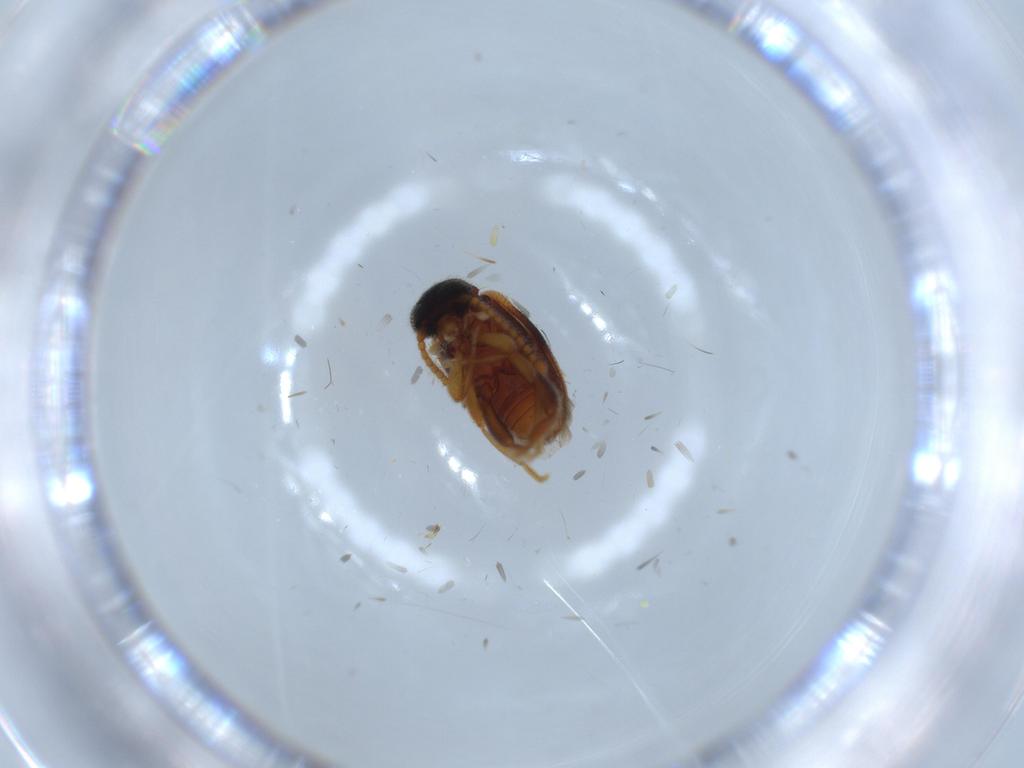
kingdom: Animalia
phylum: Arthropoda
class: Insecta
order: Coleoptera
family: Aderidae
